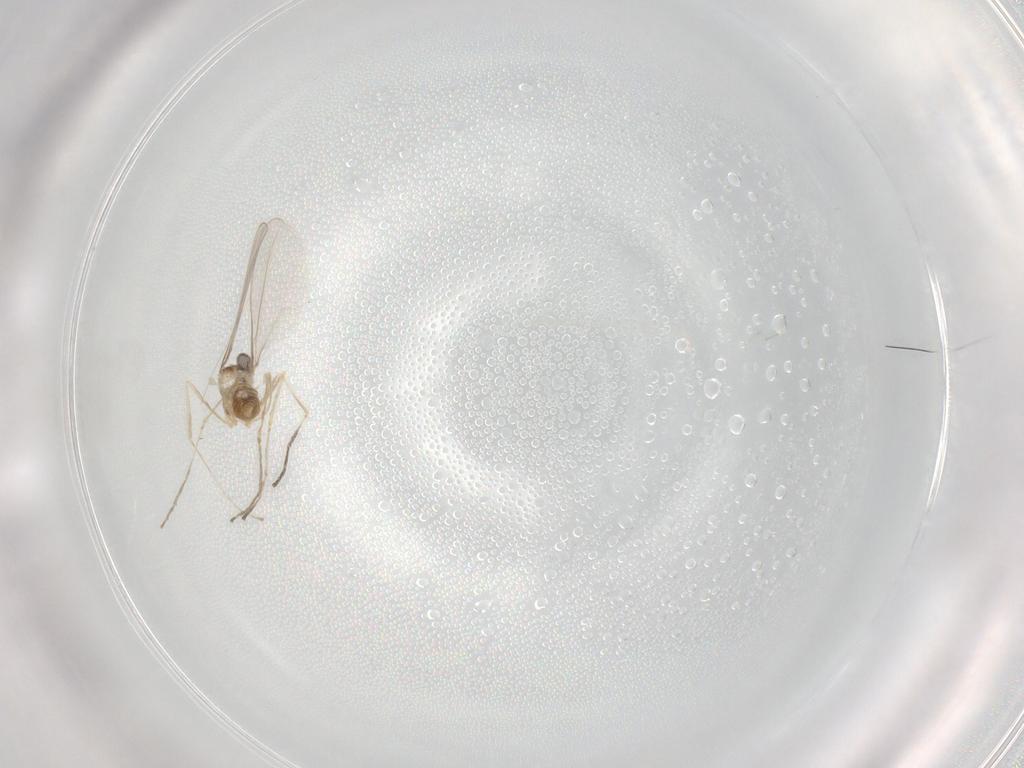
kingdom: Animalia
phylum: Arthropoda
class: Insecta
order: Diptera
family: Cecidomyiidae
